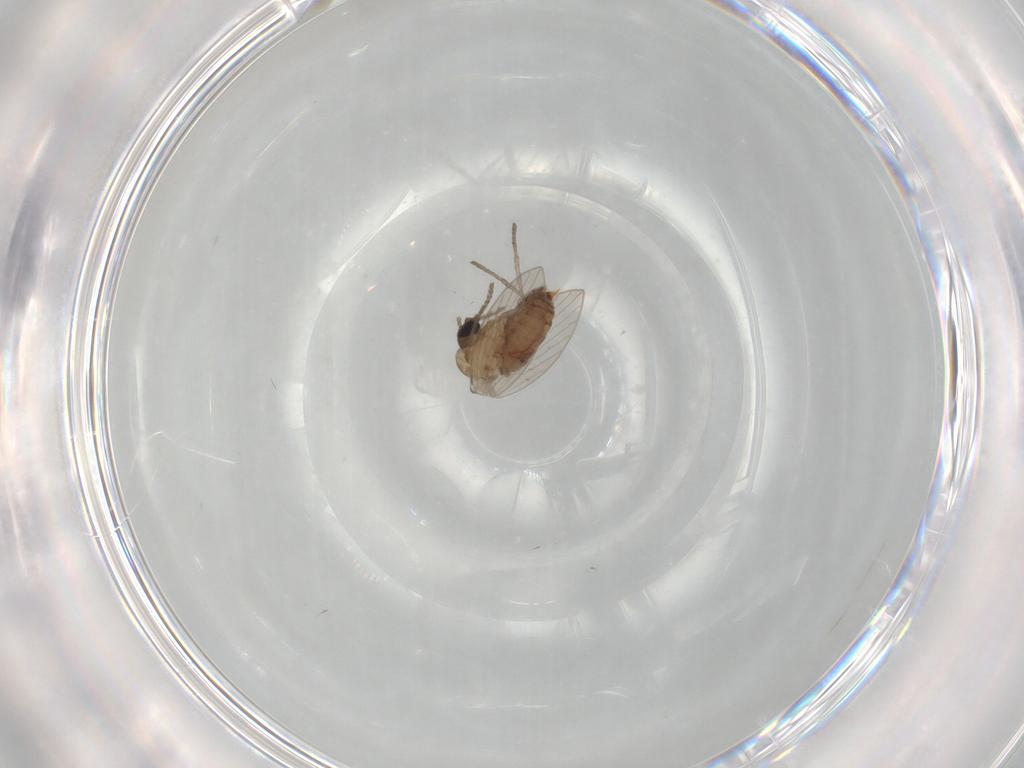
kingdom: Animalia
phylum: Arthropoda
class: Insecta
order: Diptera
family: Psychodidae
